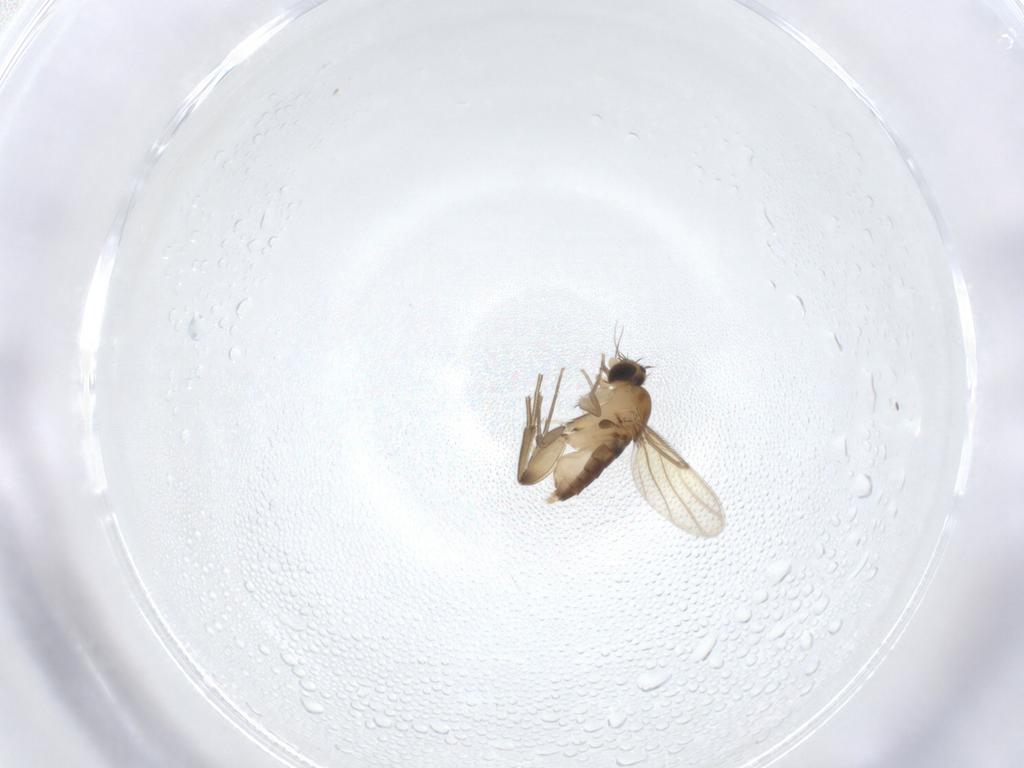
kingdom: Animalia
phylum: Arthropoda
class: Insecta
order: Diptera
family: Phoridae
